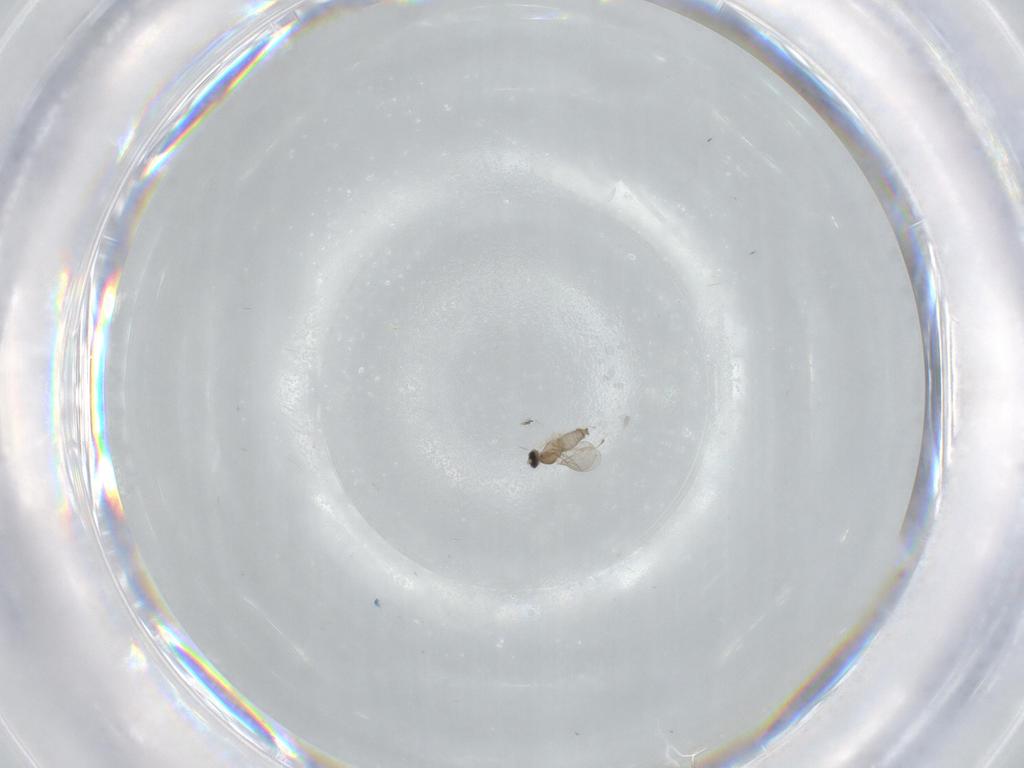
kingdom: Animalia
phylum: Arthropoda
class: Insecta
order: Diptera
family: Cecidomyiidae
